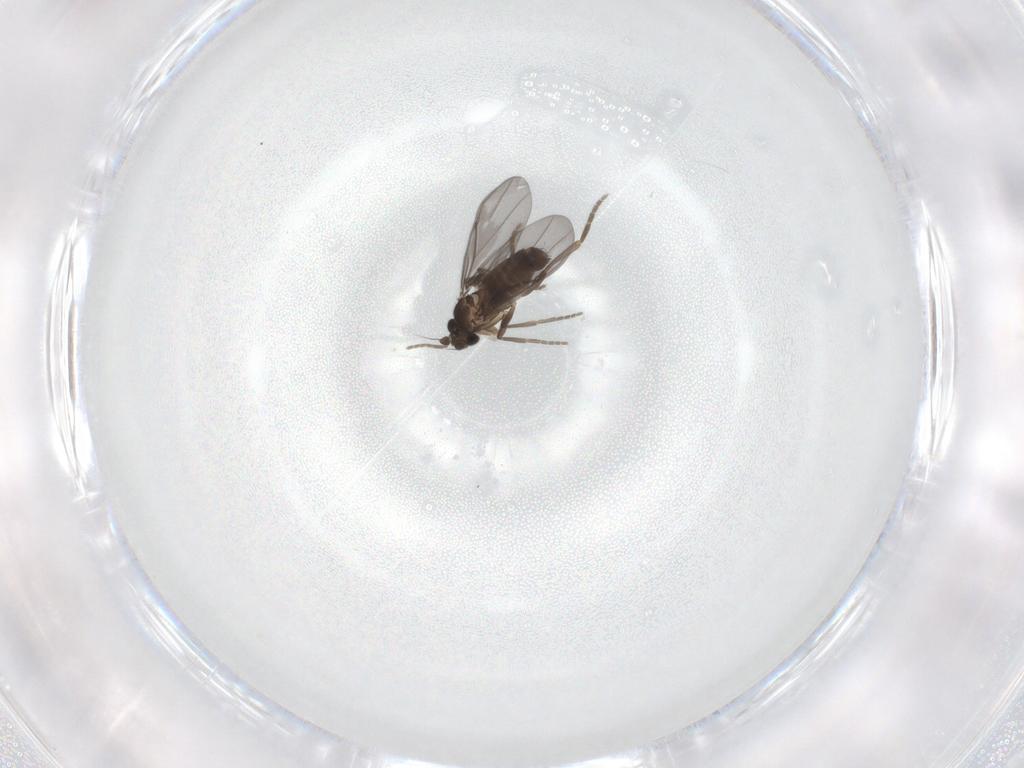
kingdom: Animalia
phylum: Arthropoda
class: Insecta
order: Diptera
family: Phoridae
